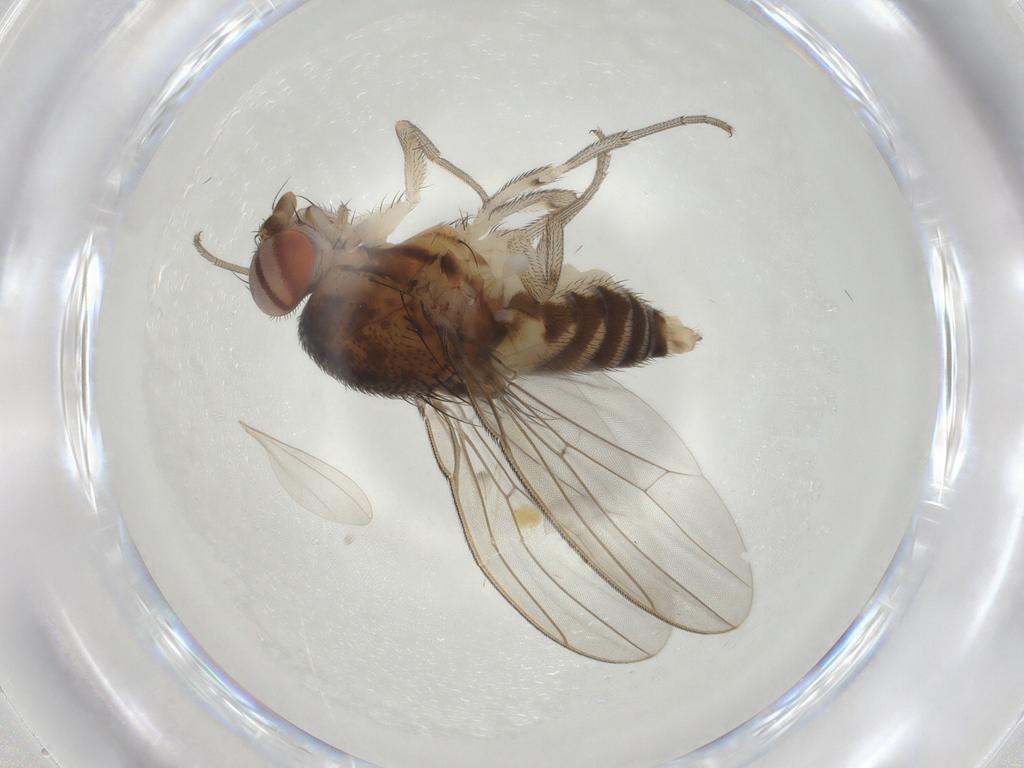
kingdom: Animalia
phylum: Arthropoda
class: Insecta
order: Diptera
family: Drosophilidae
